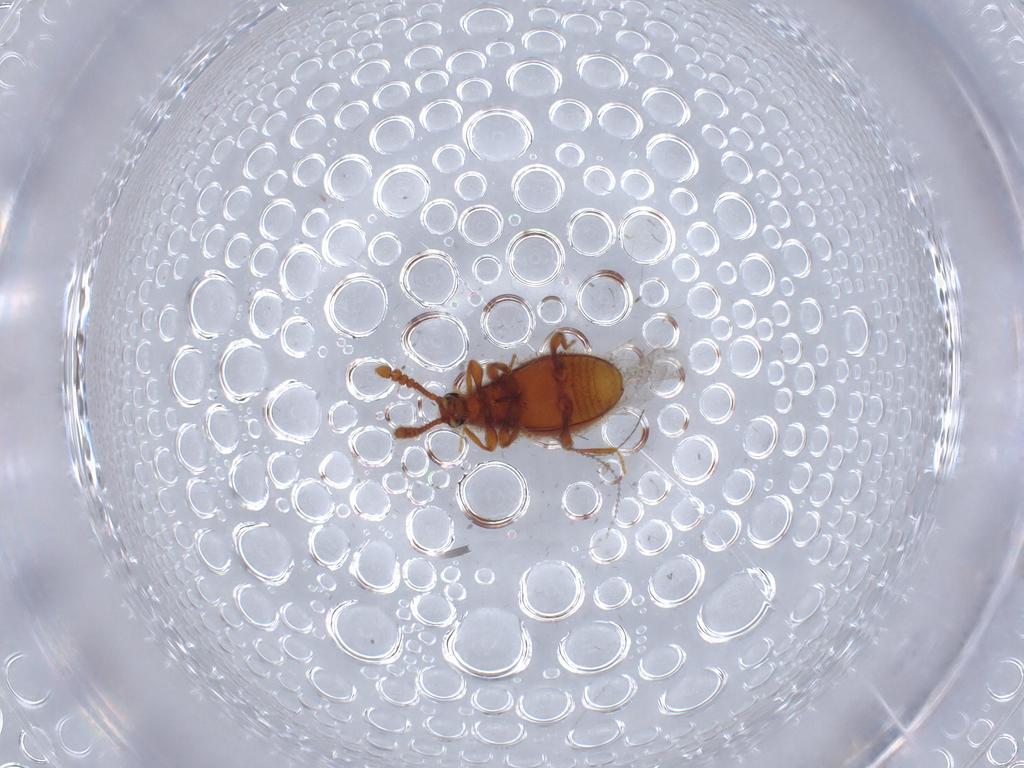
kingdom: Animalia
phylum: Arthropoda
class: Insecta
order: Coleoptera
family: Staphylinidae
